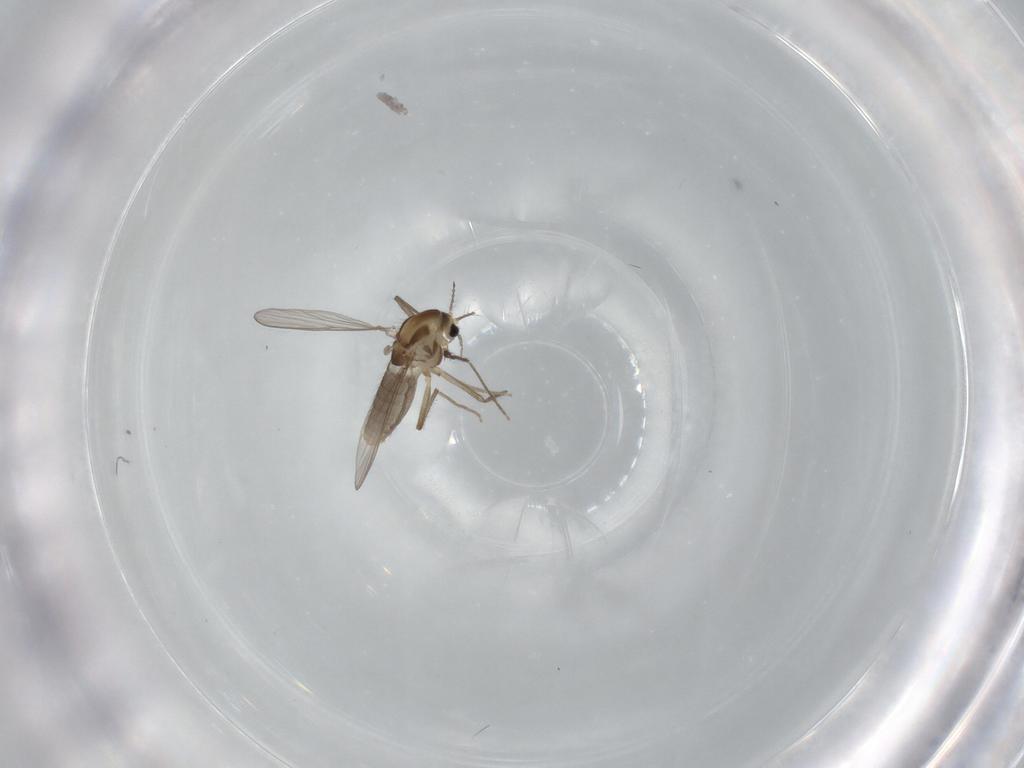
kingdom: Animalia
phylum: Arthropoda
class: Insecta
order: Diptera
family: Chironomidae
